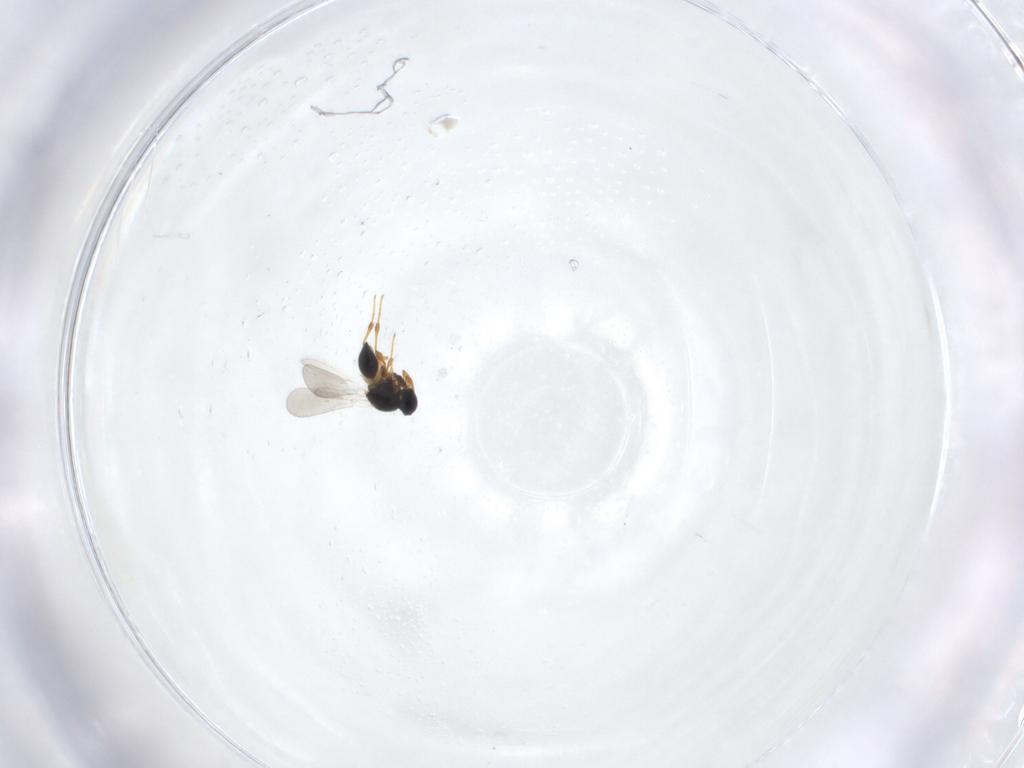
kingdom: Animalia
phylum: Arthropoda
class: Insecta
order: Hymenoptera
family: Platygastridae
